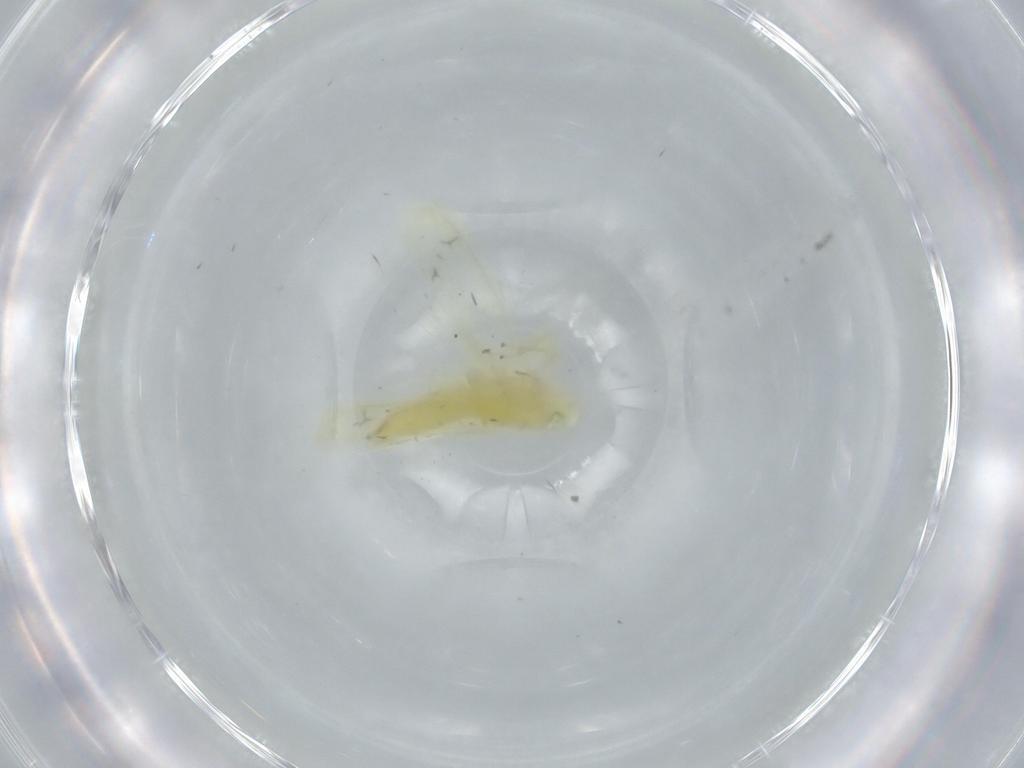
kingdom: Animalia
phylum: Arthropoda
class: Insecta
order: Hemiptera
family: Cicadellidae
